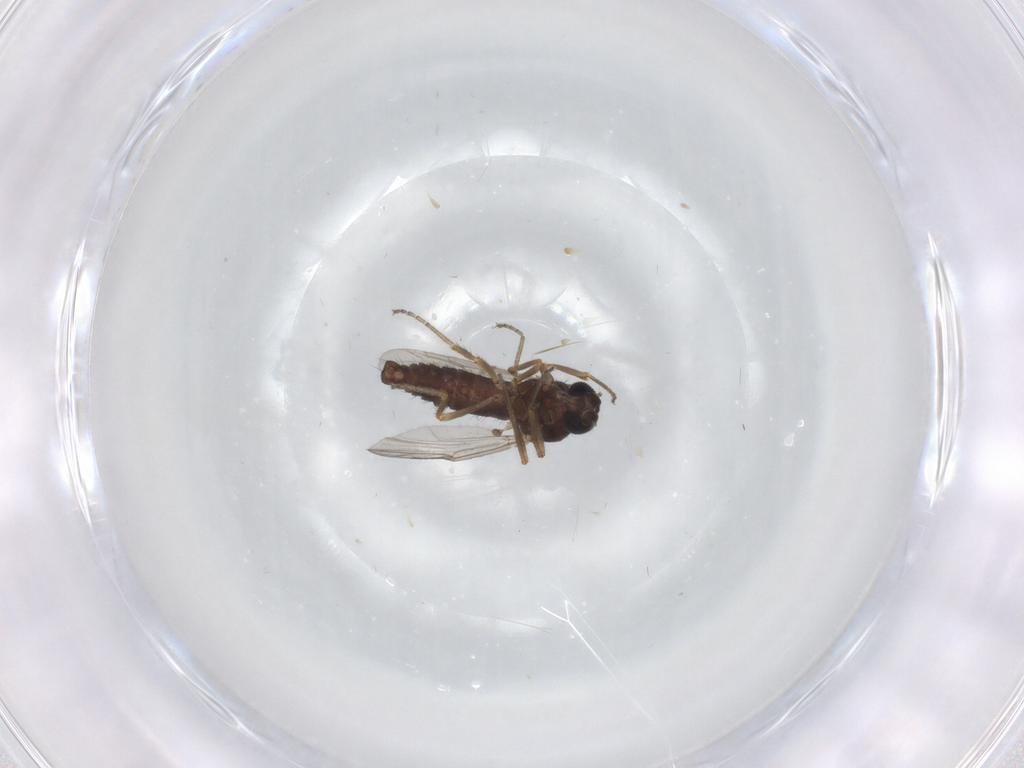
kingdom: Animalia
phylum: Arthropoda
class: Insecta
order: Diptera
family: Ceratopogonidae
